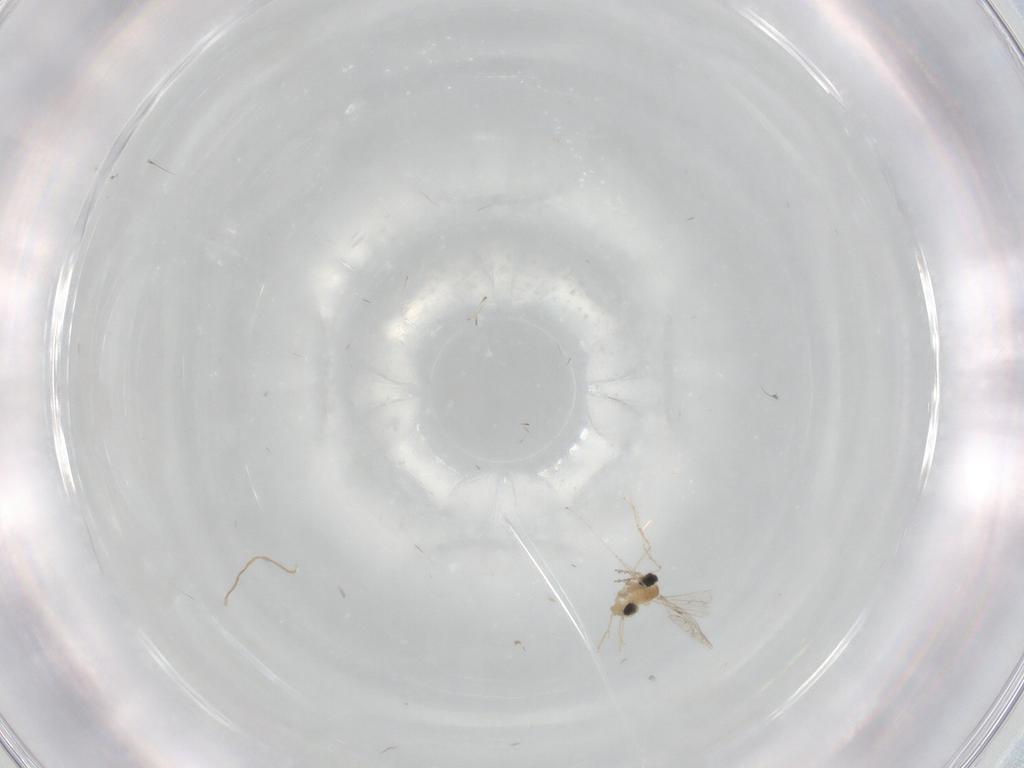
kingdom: Animalia
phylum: Arthropoda
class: Insecta
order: Diptera
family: Cecidomyiidae
